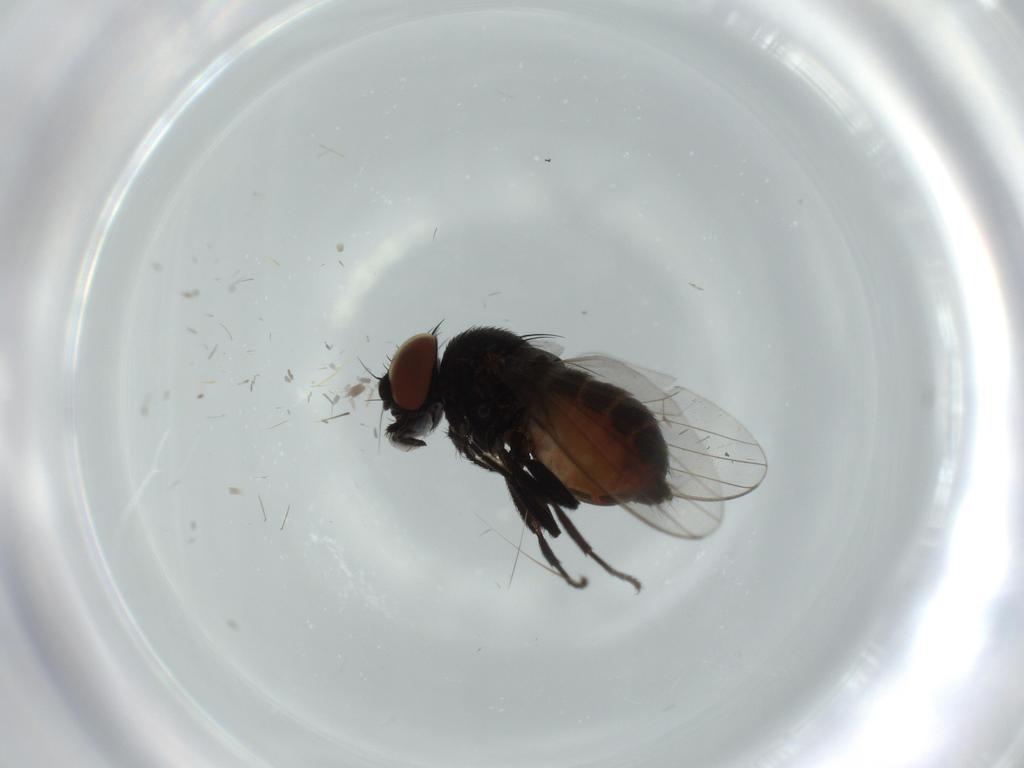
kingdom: Animalia
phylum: Arthropoda
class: Insecta
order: Diptera
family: Milichiidae
